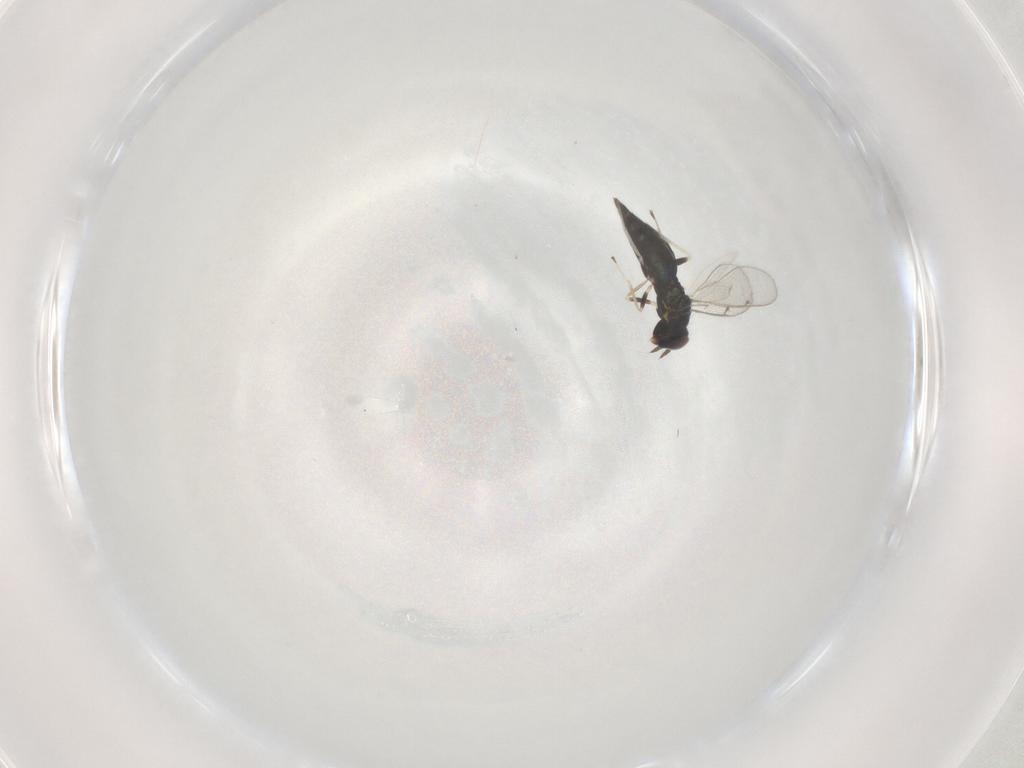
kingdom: Animalia
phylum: Arthropoda
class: Insecta
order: Hymenoptera
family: Eulophidae
